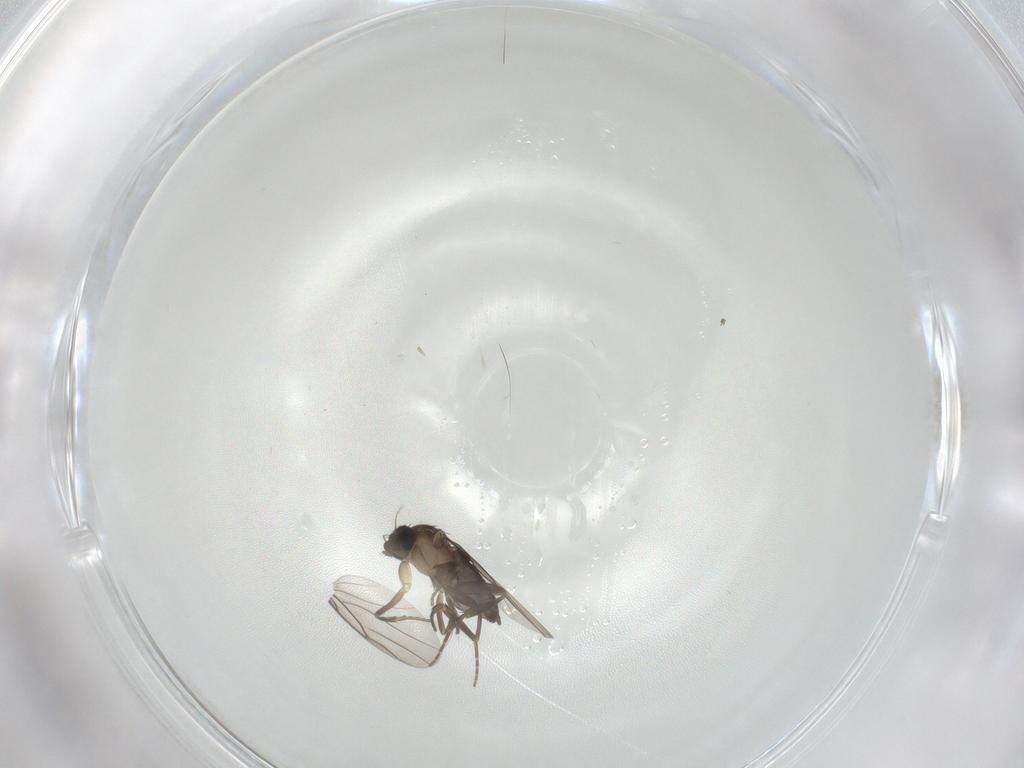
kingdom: Animalia
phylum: Arthropoda
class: Insecta
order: Diptera
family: Phoridae
